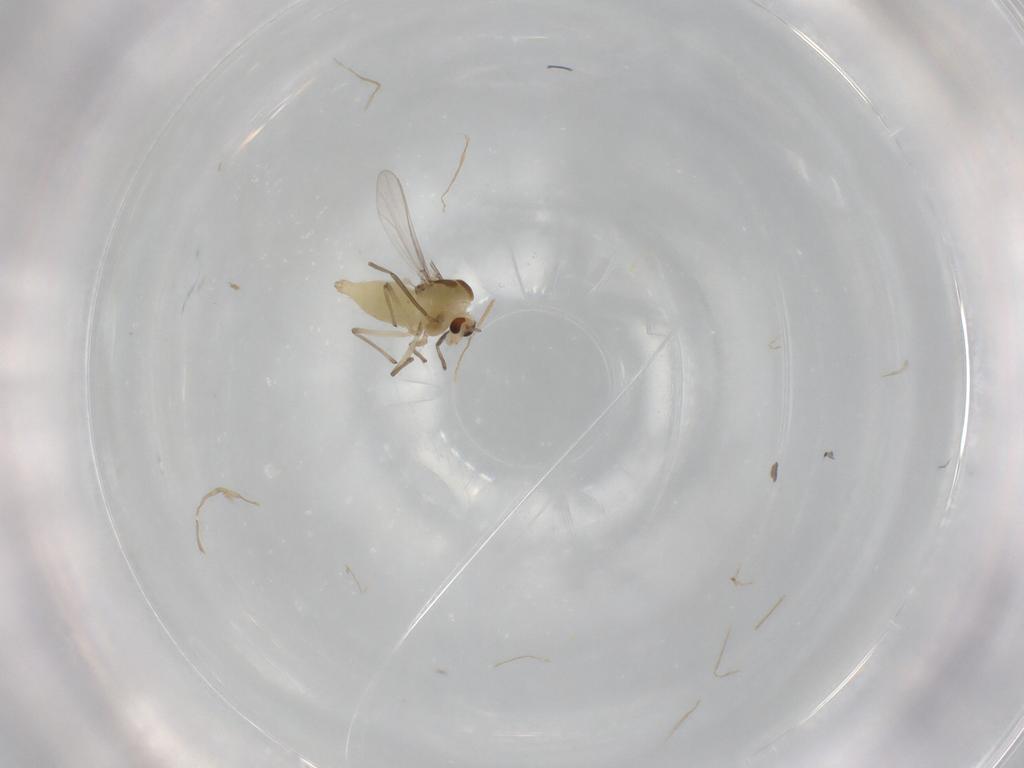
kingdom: Animalia
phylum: Arthropoda
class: Insecta
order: Diptera
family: Chironomidae
